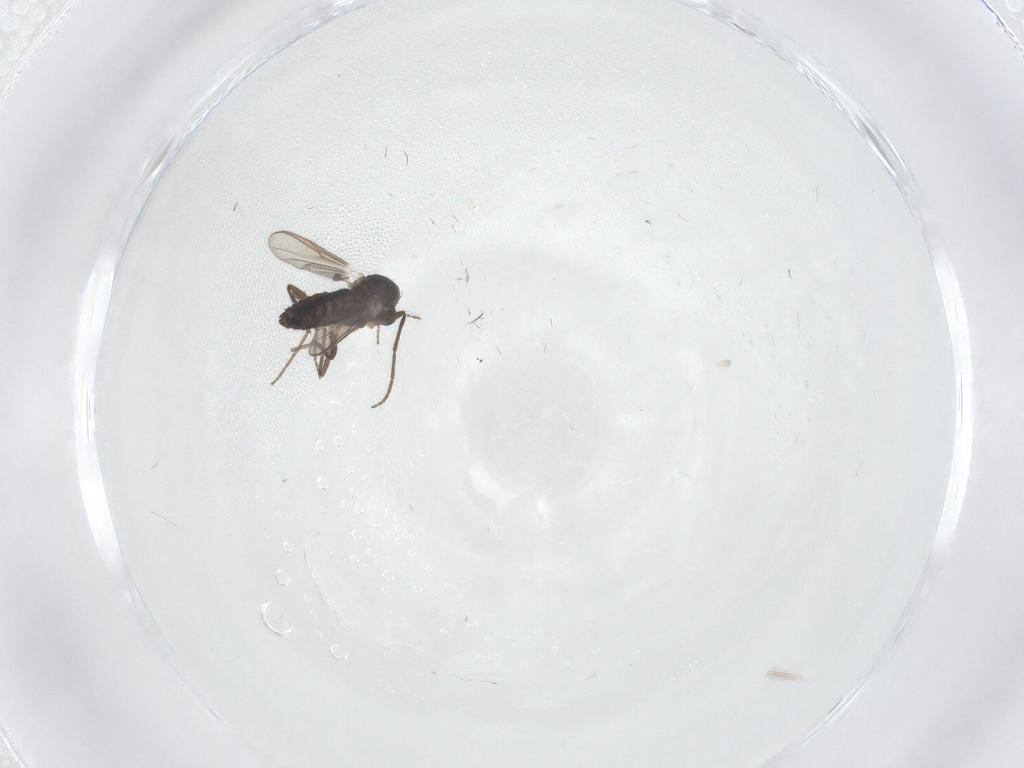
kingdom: Animalia
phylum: Arthropoda
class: Insecta
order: Diptera
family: Chironomidae
